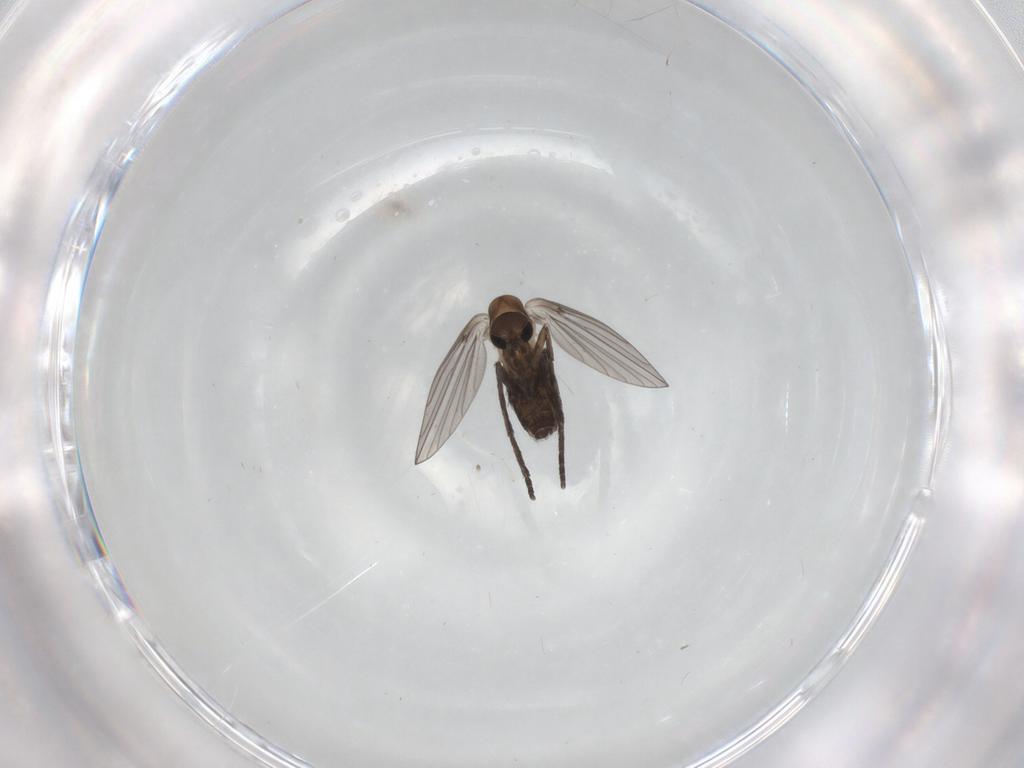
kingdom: Animalia
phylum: Arthropoda
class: Insecta
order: Diptera
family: Psychodidae
